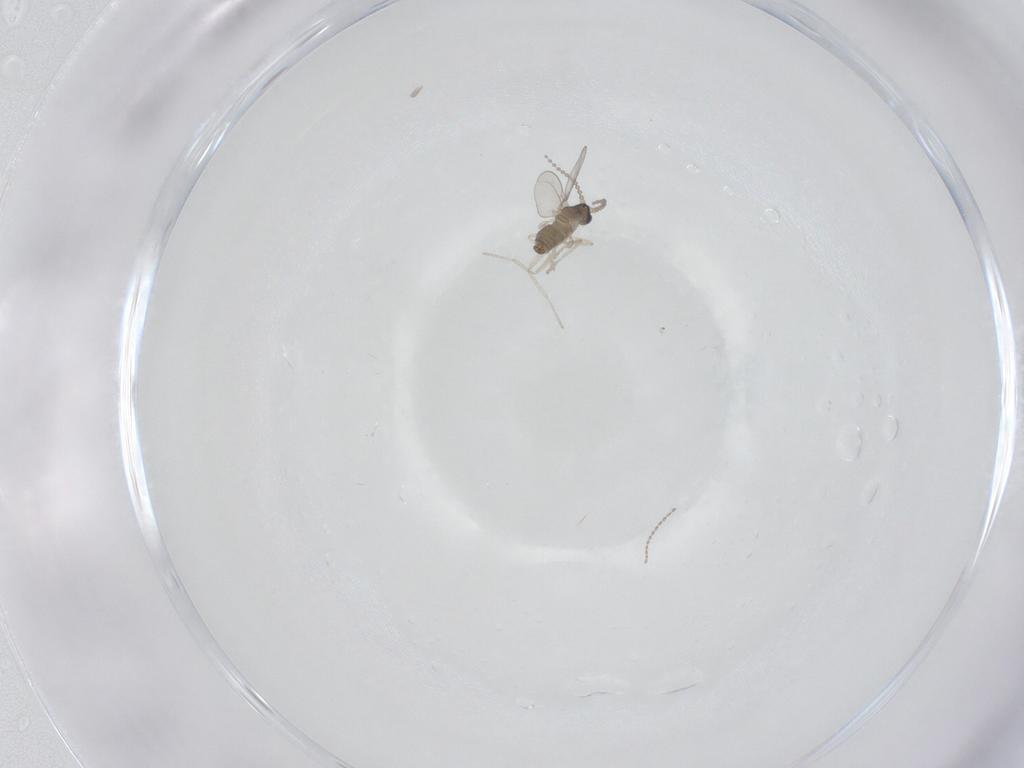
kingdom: Animalia
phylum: Arthropoda
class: Insecta
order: Diptera
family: Cecidomyiidae
